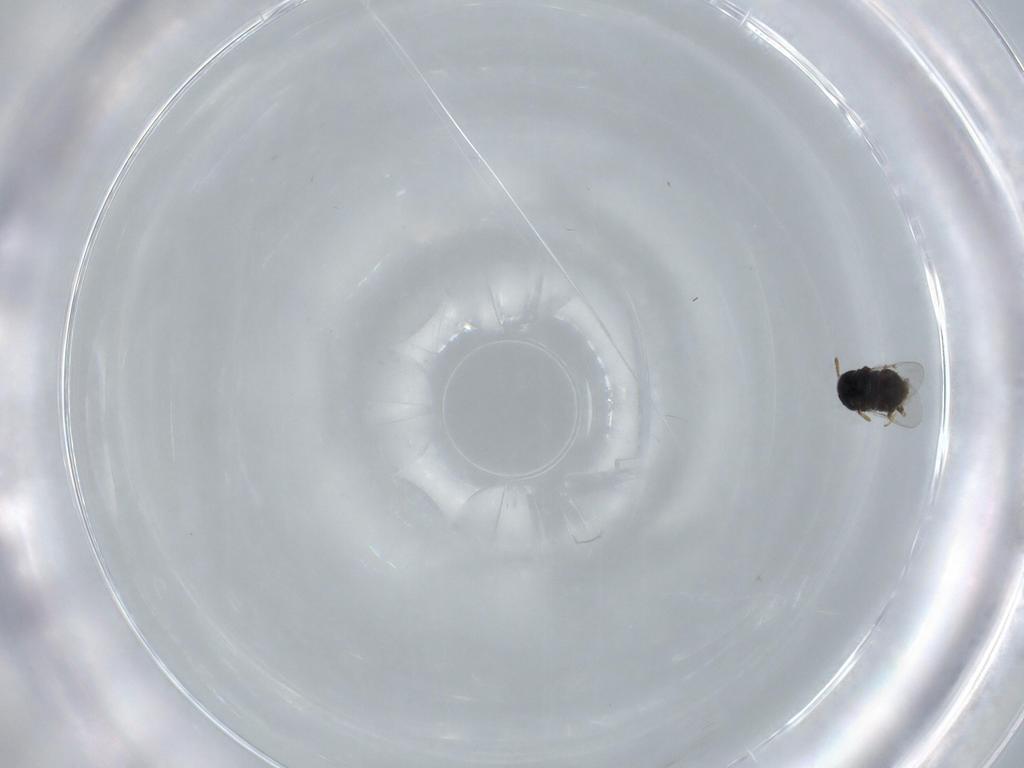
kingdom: Animalia
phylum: Arthropoda
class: Insecta
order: Hymenoptera
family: Encyrtidae
